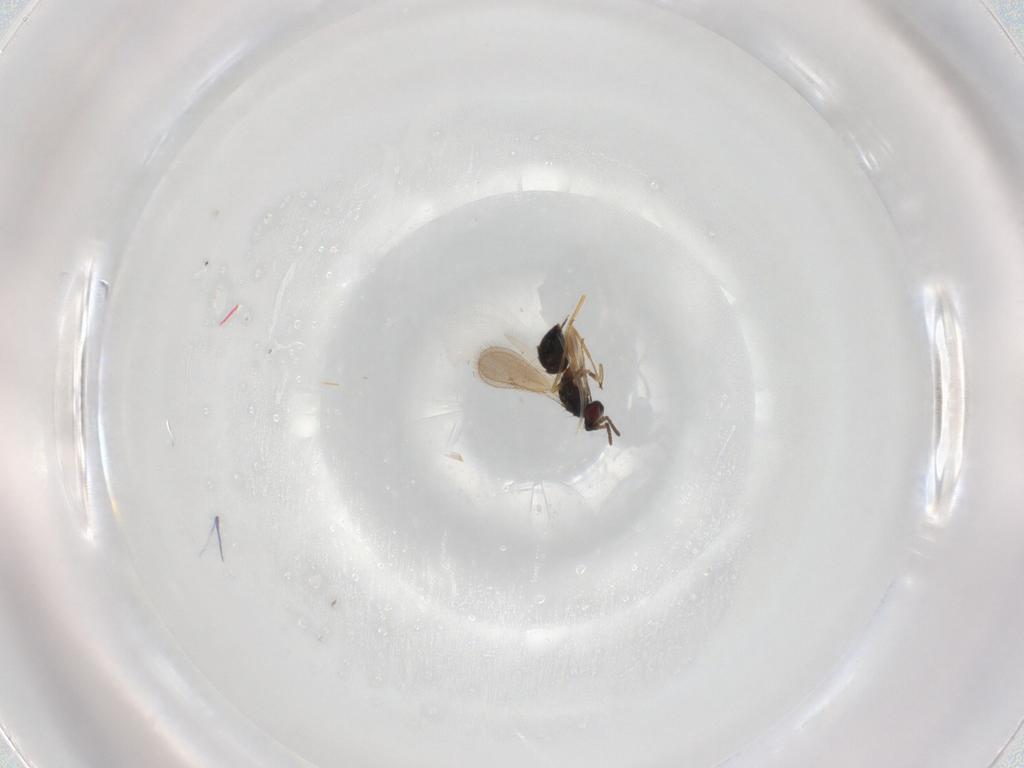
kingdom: Animalia
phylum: Arthropoda
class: Insecta
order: Hymenoptera
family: Tetracampidae
